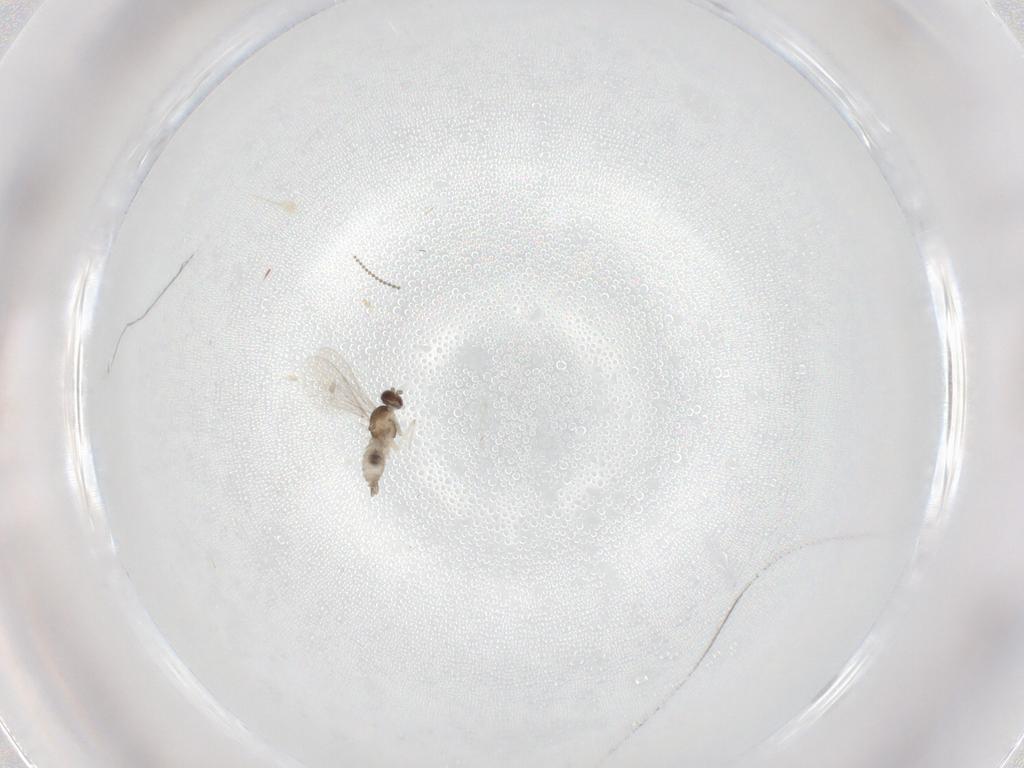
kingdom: Animalia
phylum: Arthropoda
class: Insecta
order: Diptera
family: Cecidomyiidae
